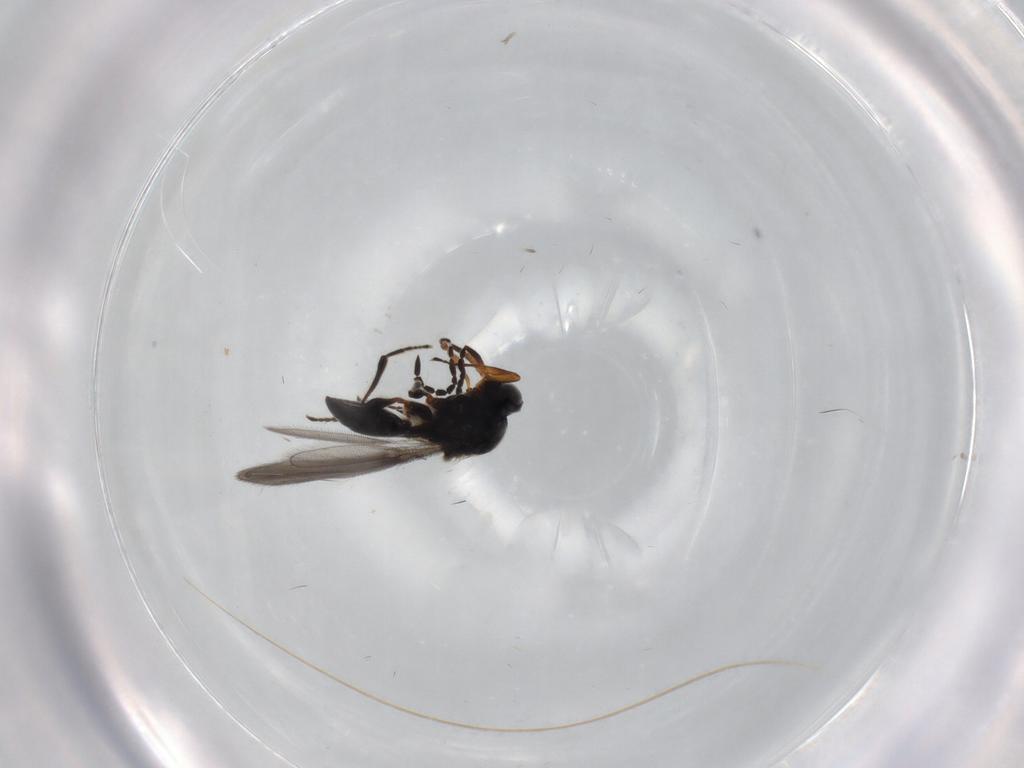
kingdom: Animalia
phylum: Arthropoda
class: Insecta
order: Hymenoptera
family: Platygastridae
